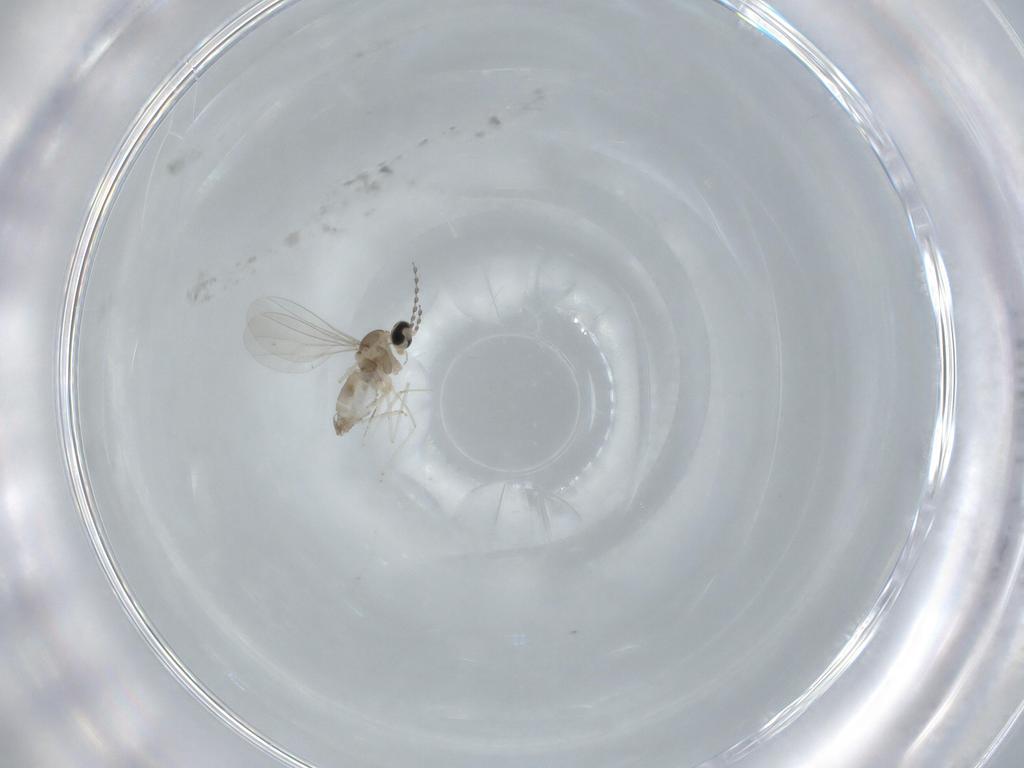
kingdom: Animalia
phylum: Arthropoda
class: Insecta
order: Diptera
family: Cecidomyiidae
